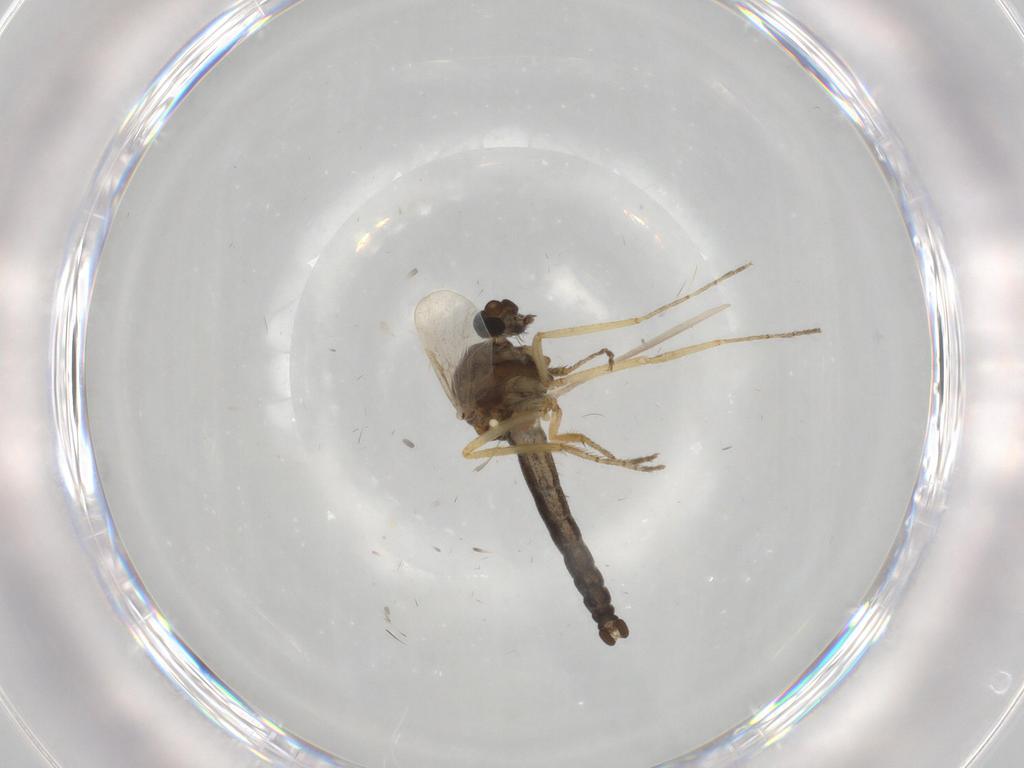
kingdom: Animalia
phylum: Arthropoda
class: Insecta
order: Diptera
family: Ceratopogonidae
